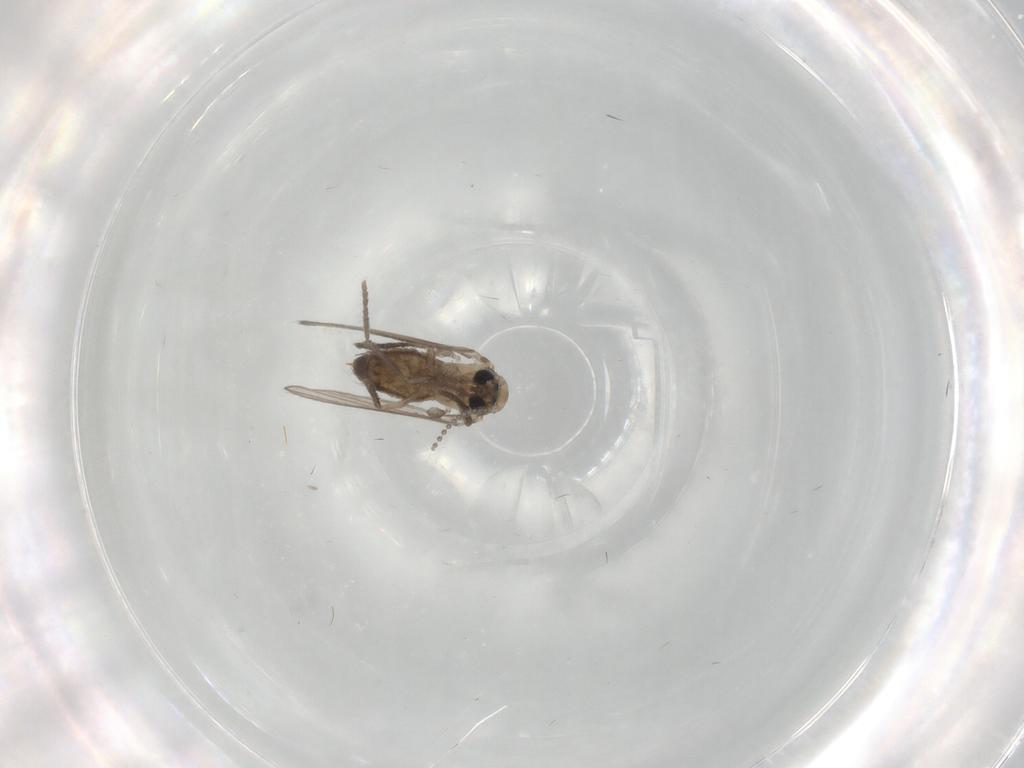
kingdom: Animalia
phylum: Arthropoda
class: Insecta
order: Diptera
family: Psychodidae
